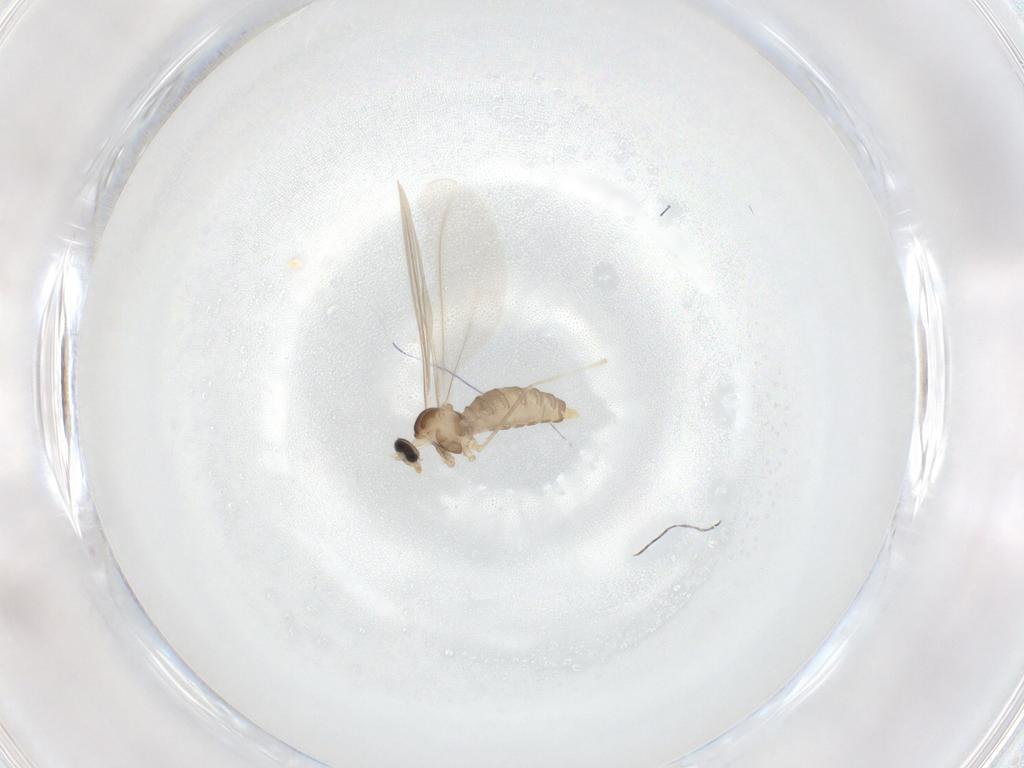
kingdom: Animalia
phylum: Arthropoda
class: Insecta
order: Diptera
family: Cecidomyiidae
